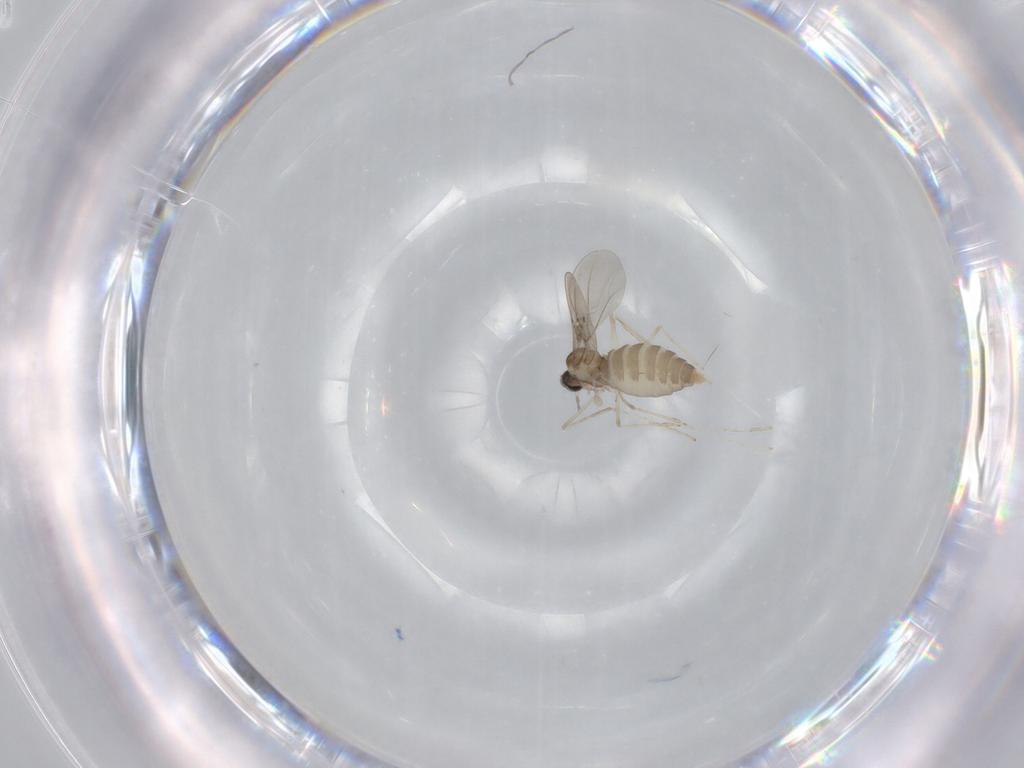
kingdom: Animalia
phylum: Arthropoda
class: Insecta
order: Diptera
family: Cecidomyiidae
